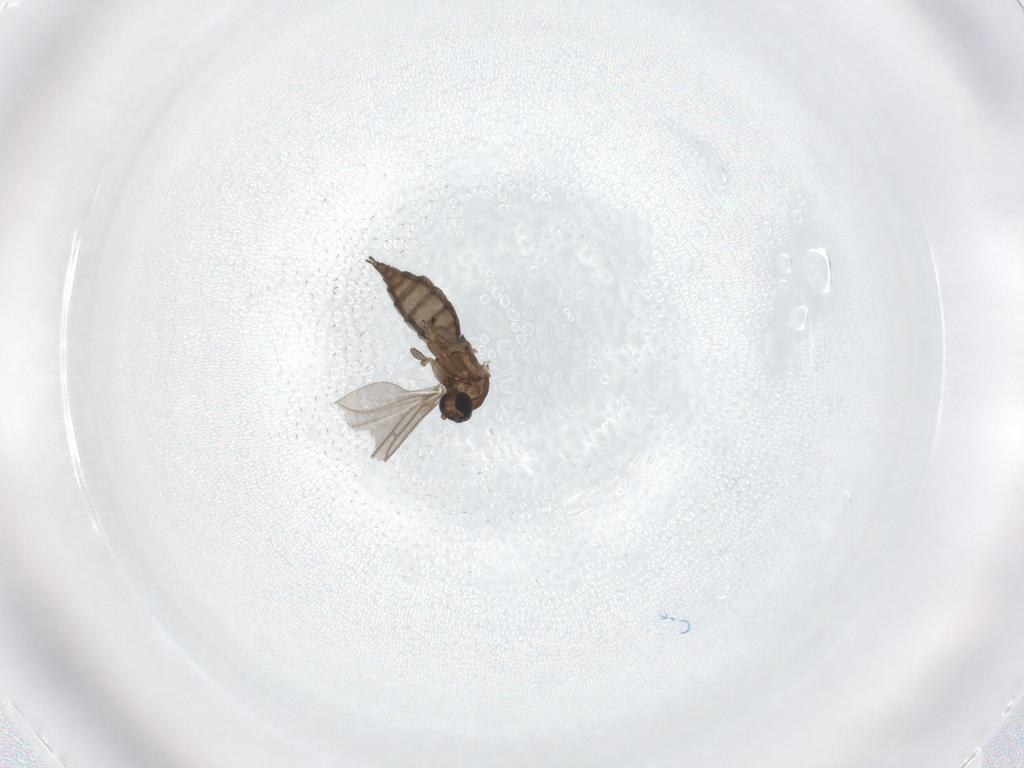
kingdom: Animalia
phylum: Arthropoda
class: Insecta
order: Diptera
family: Sciaridae
